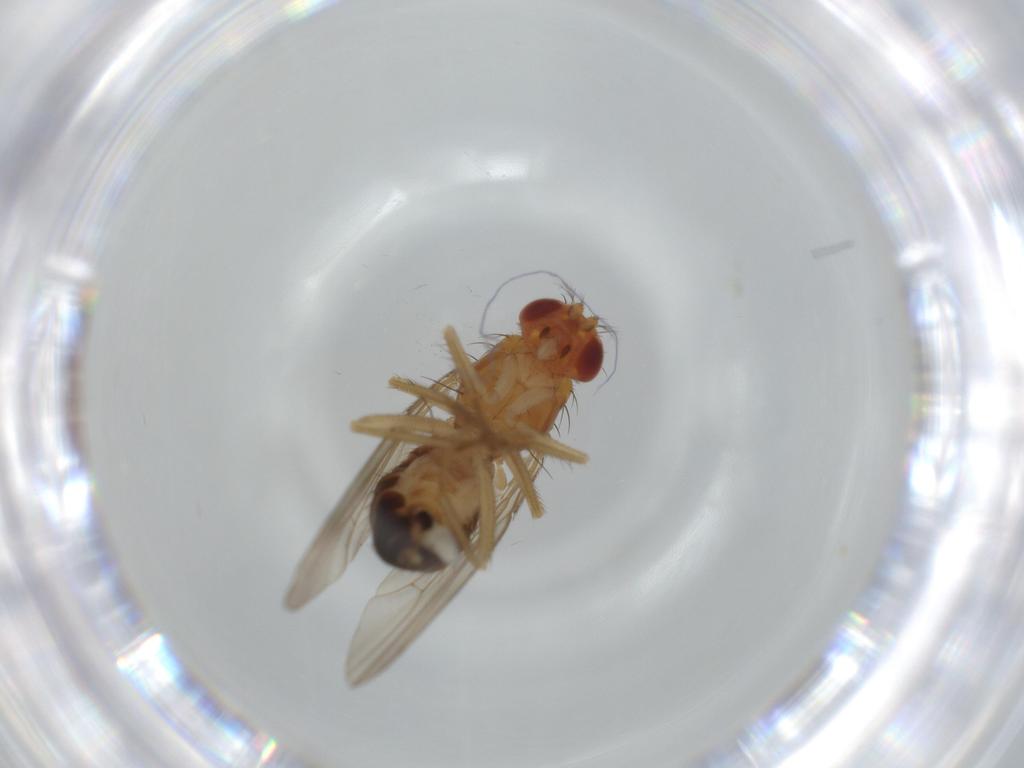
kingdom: Animalia
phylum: Arthropoda
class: Insecta
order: Diptera
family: Drosophilidae
